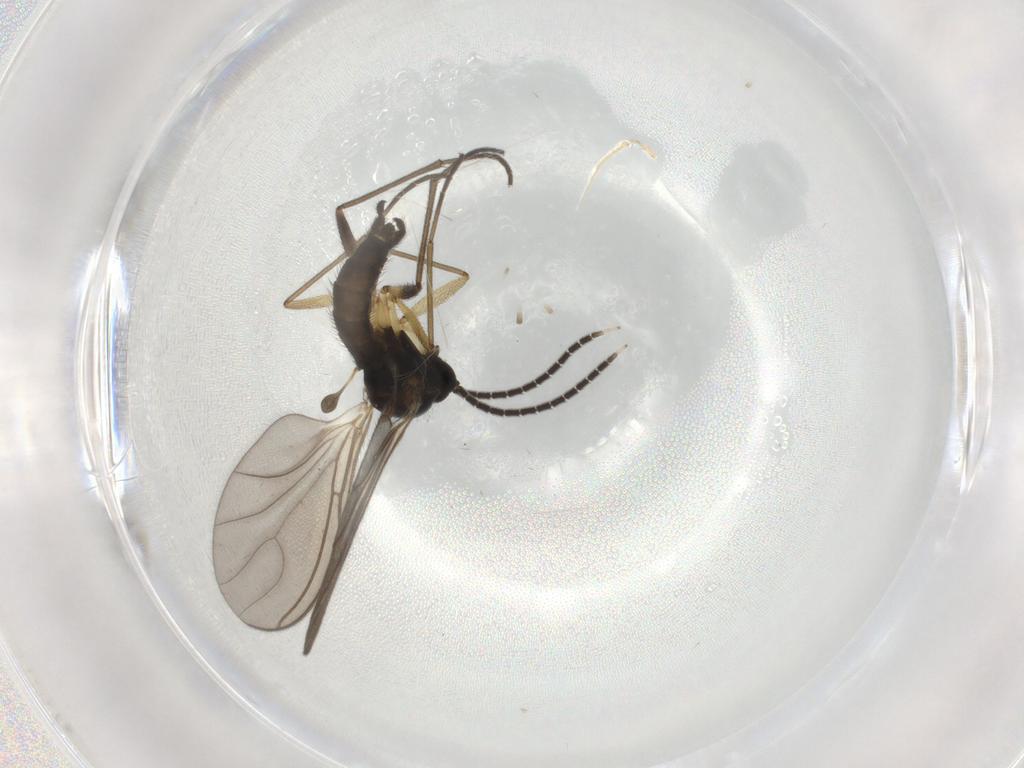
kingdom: Animalia
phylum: Arthropoda
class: Insecta
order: Diptera
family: Sciaridae
